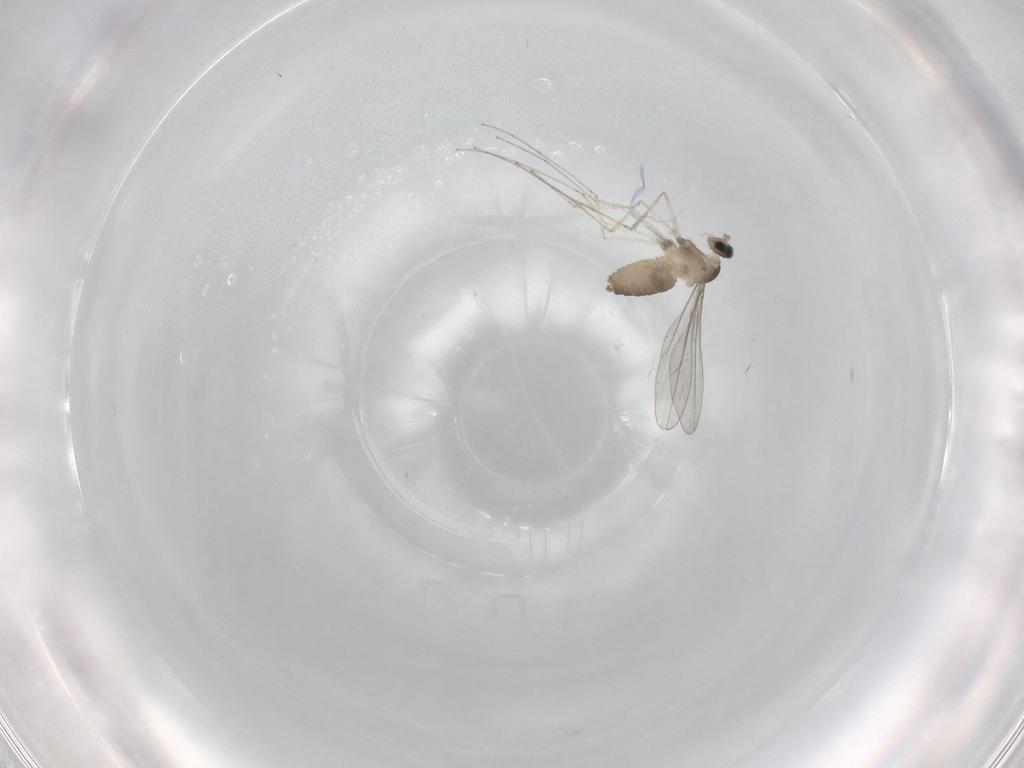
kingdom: Animalia
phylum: Arthropoda
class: Insecta
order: Diptera
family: Cecidomyiidae
